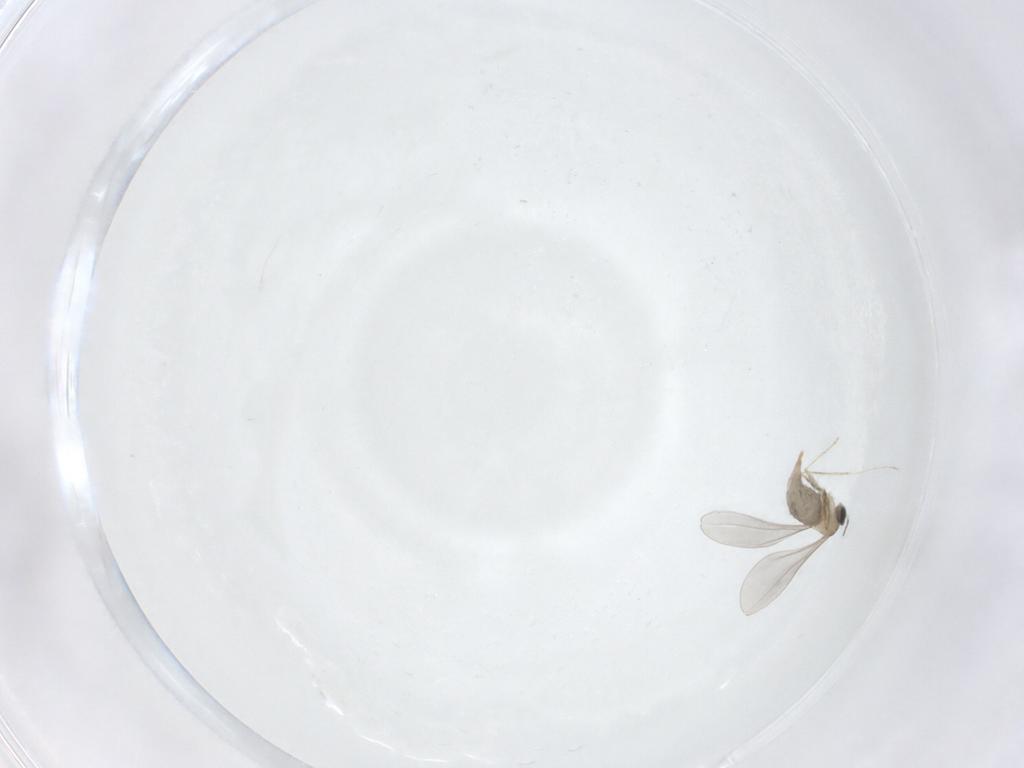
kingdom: Animalia
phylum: Arthropoda
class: Insecta
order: Diptera
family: Cecidomyiidae
